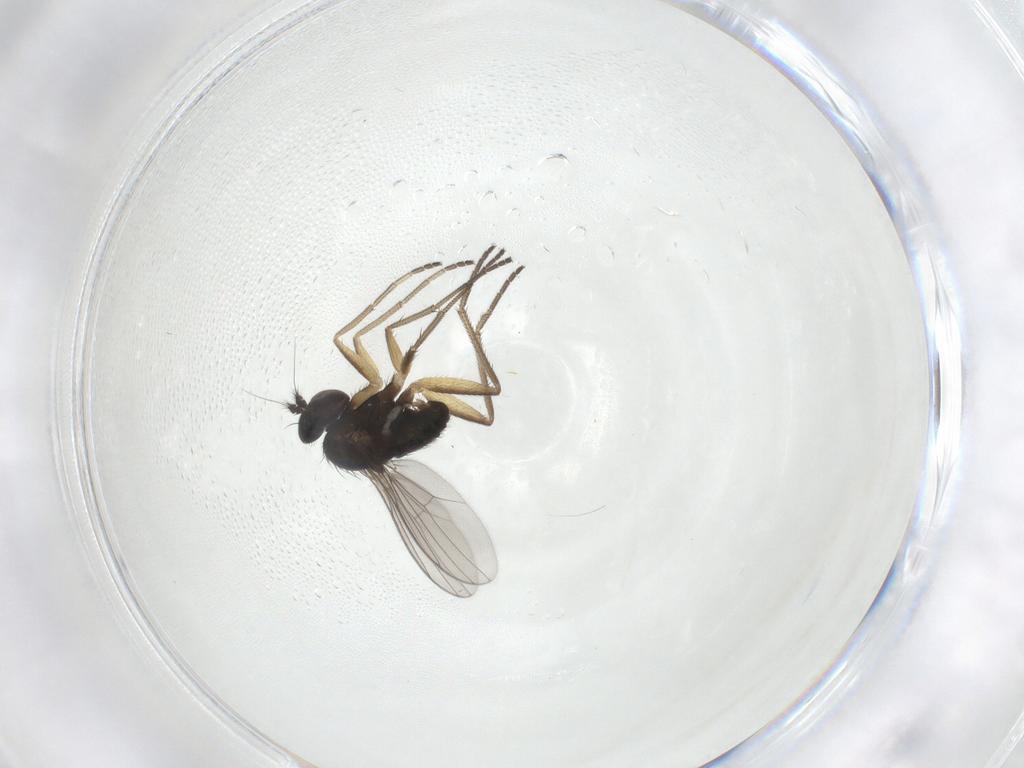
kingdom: Animalia
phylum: Arthropoda
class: Insecta
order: Diptera
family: Dolichopodidae
